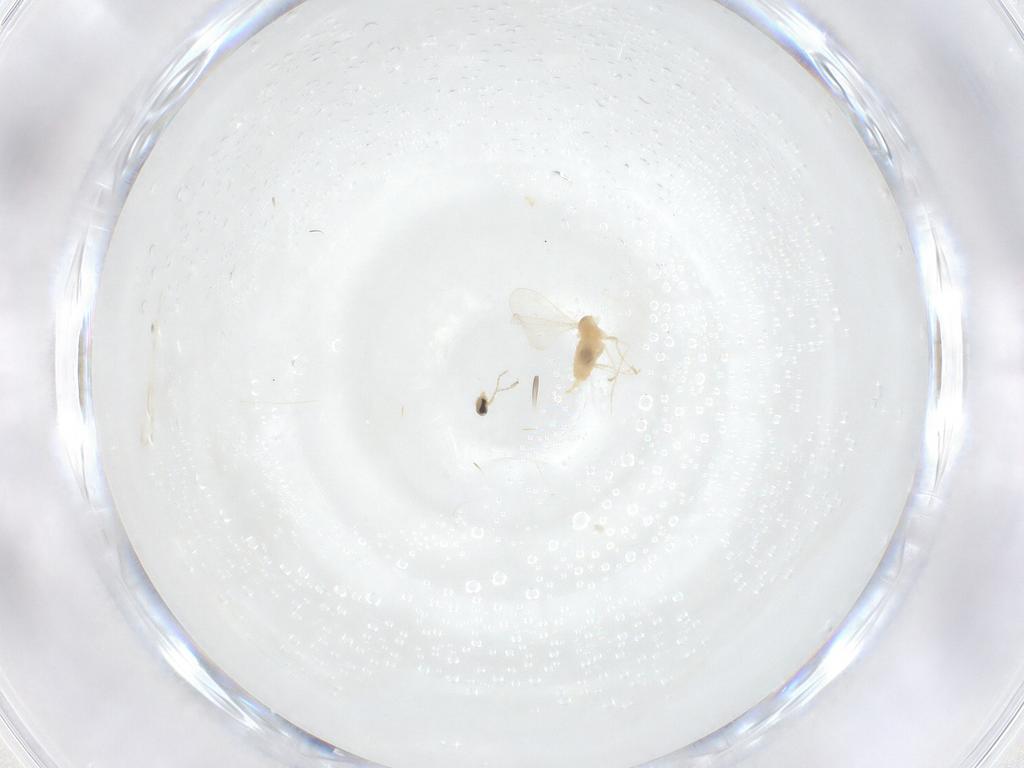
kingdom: Animalia
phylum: Arthropoda
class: Insecta
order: Diptera
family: Cecidomyiidae
